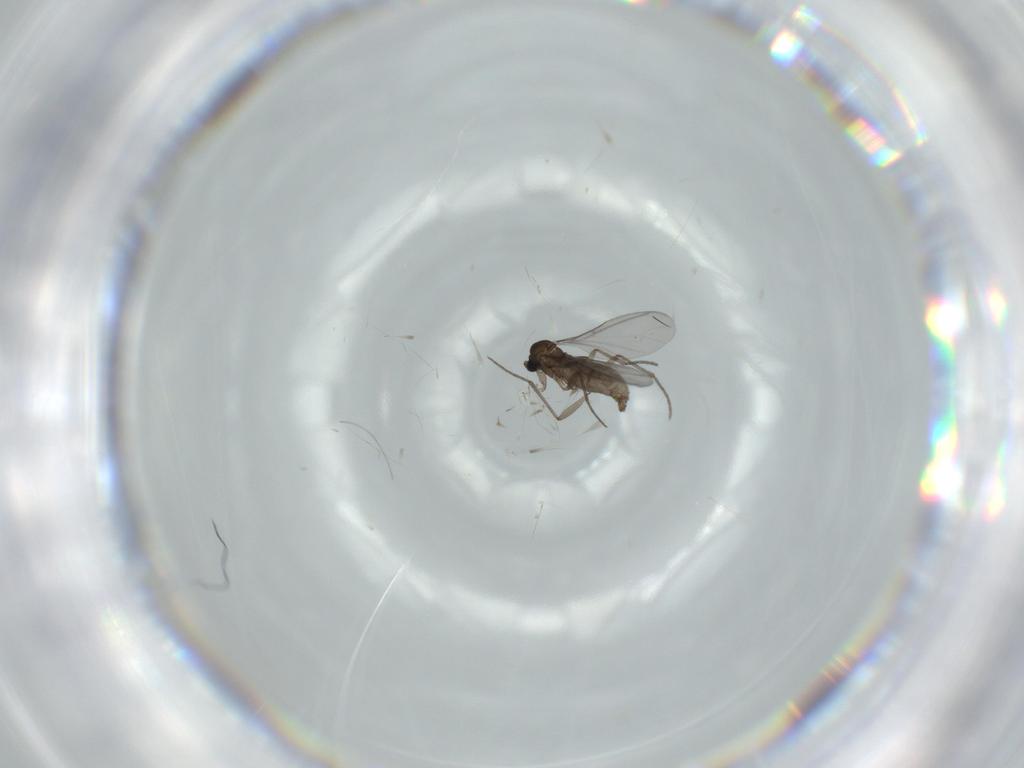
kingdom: Animalia
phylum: Arthropoda
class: Insecta
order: Diptera
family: Sciaridae
